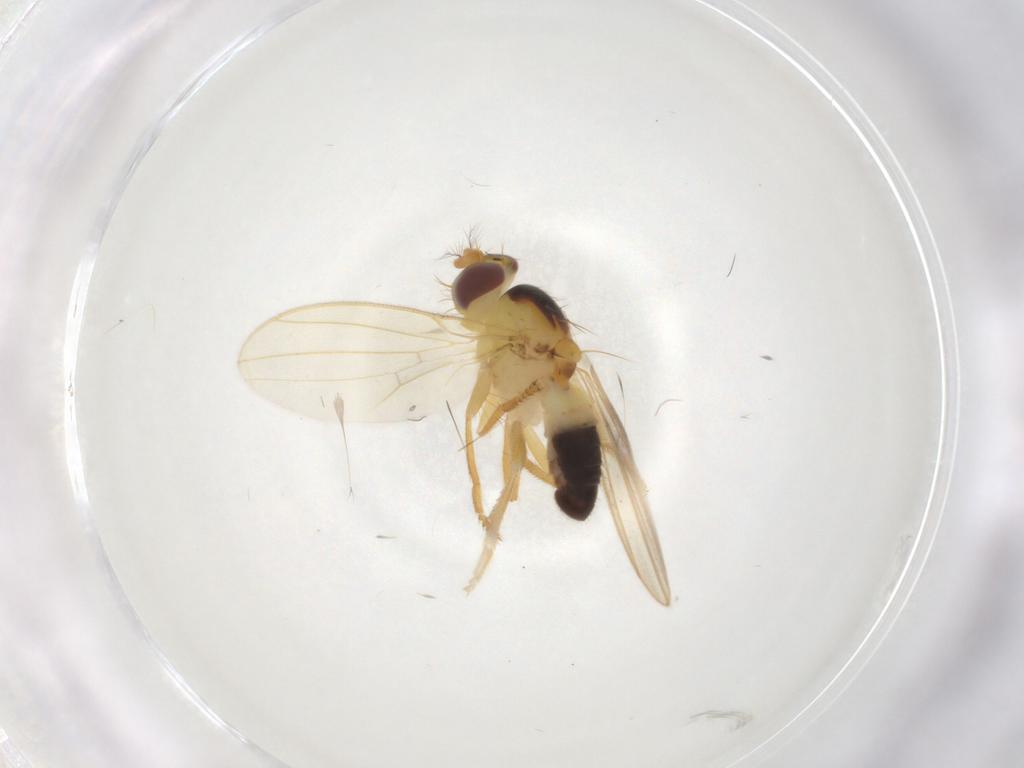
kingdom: Animalia
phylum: Arthropoda
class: Insecta
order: Diptera
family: Periscelididae
